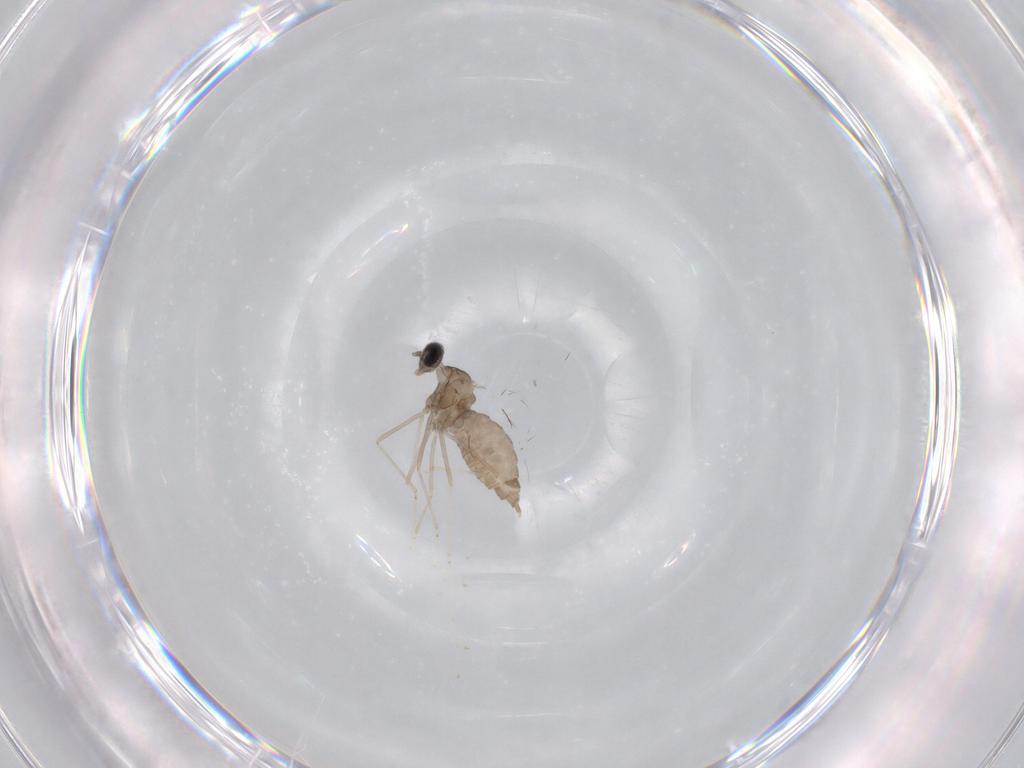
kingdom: Animalia
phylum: Arthropoda
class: Insecta
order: Diptera
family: Cecidomyiidae
